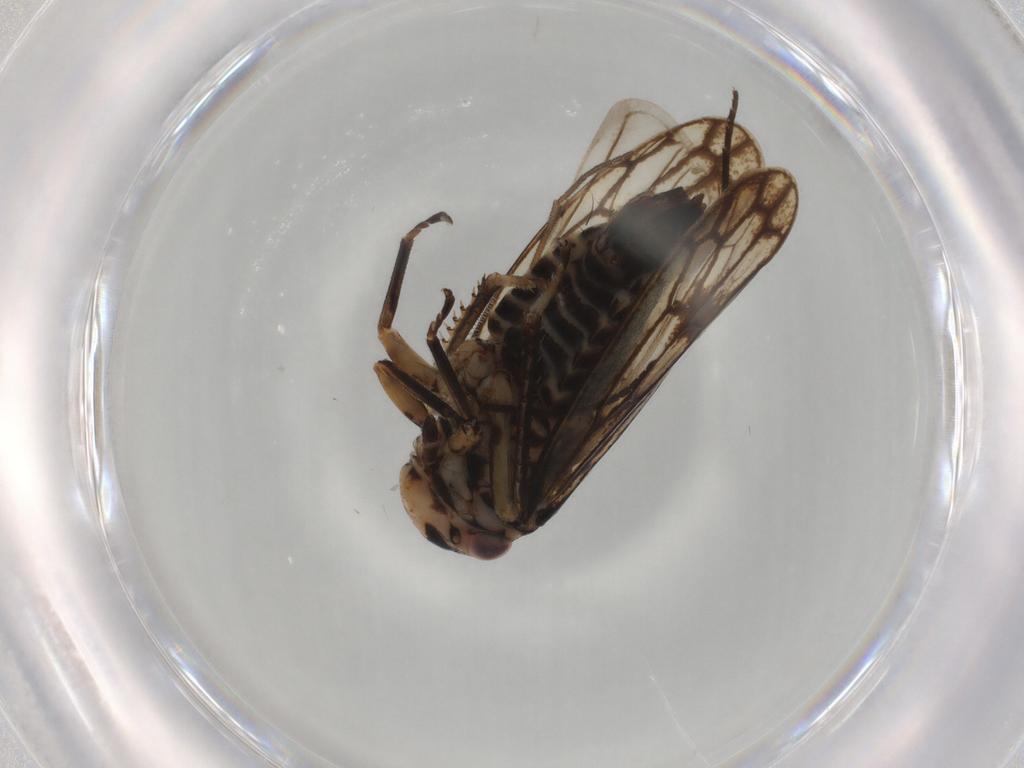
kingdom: Animalia
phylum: Arthropoda
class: Insecta
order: Hemiptera
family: Cicadellidae
